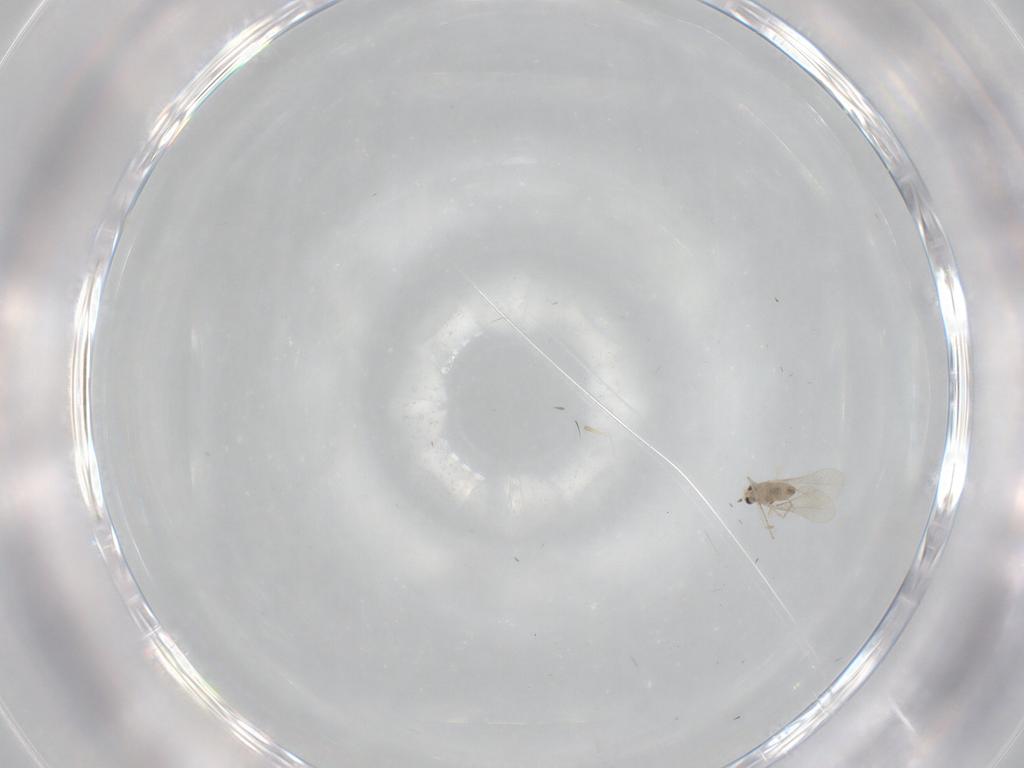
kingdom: Animalia
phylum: Arthropoda
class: Insecta
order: Diptera
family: Cecidomyiidae
